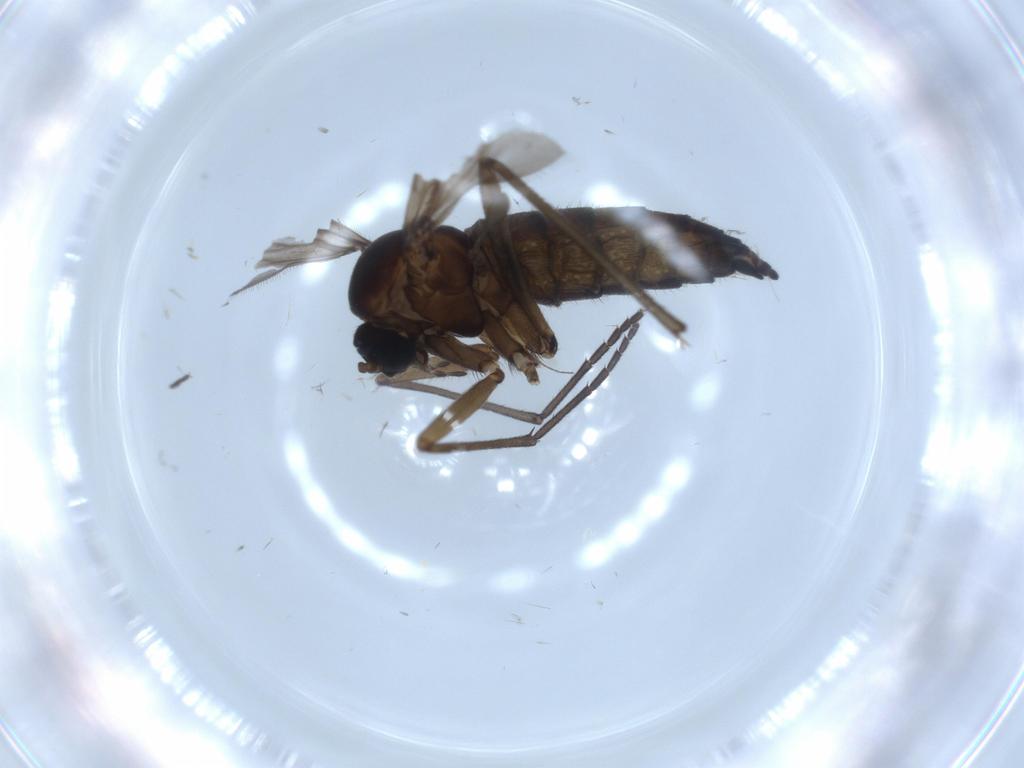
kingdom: Animalia
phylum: Arthropoda
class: Insecta
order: Diptera
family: Sciaridae
